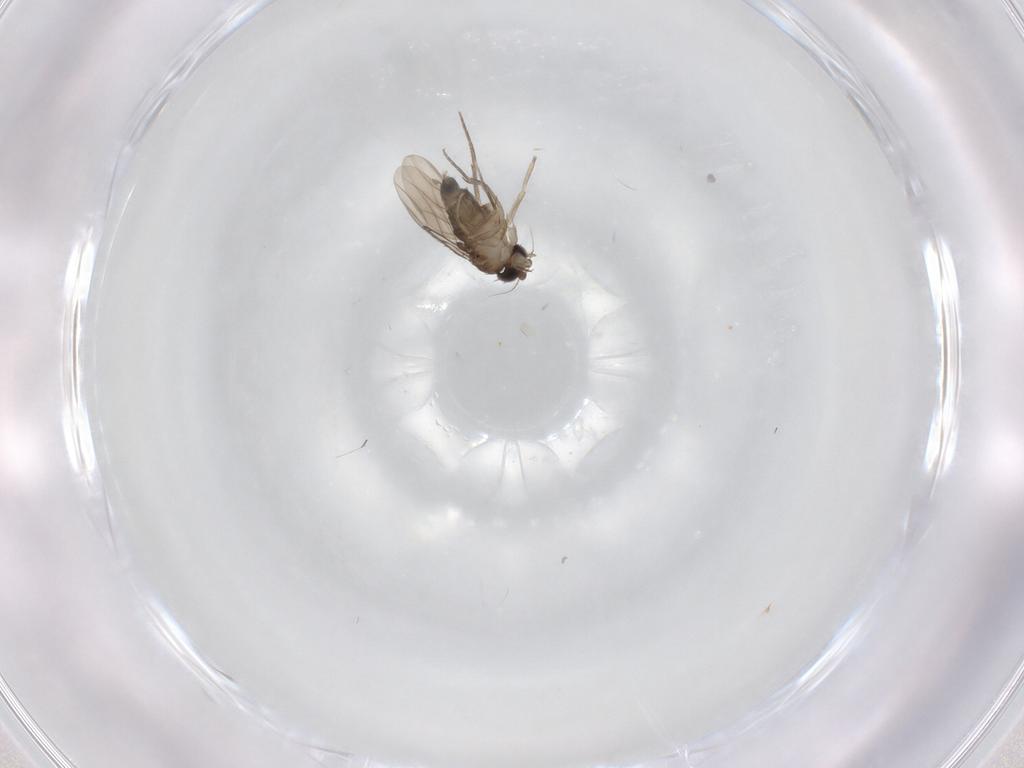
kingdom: Animalia
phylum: Arthropoda
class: Insecta
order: Diptera
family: Phoridae
